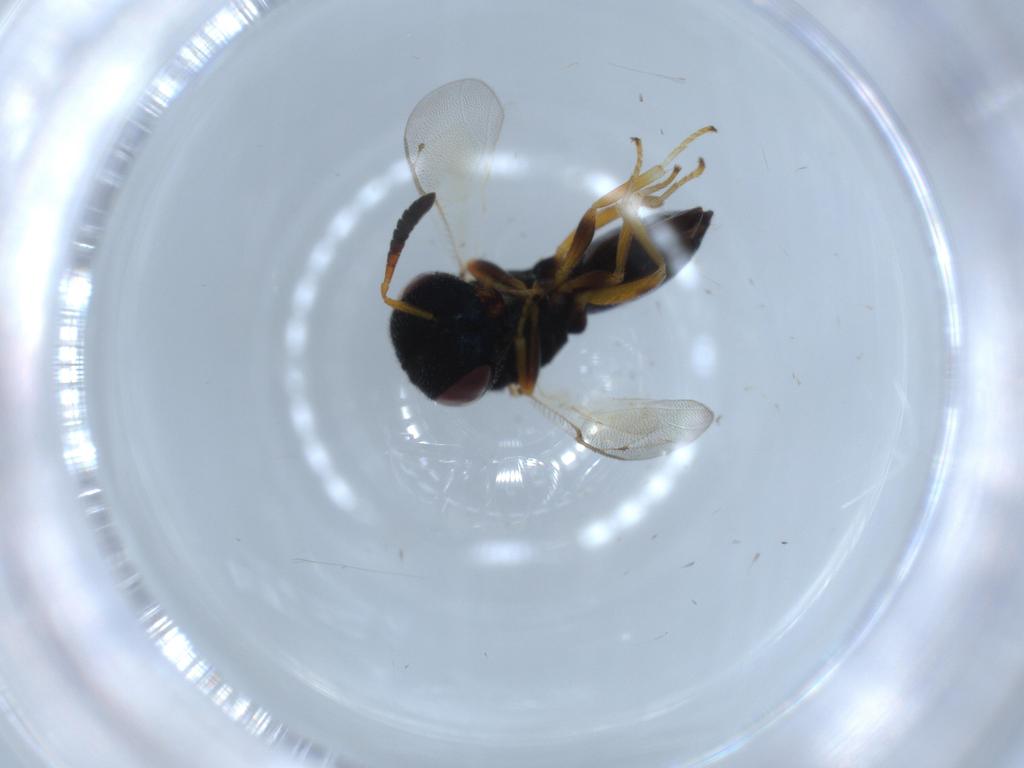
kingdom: Animalia
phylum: Arthropoda
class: Insecta
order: Hymenoptera
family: Agaonidae
